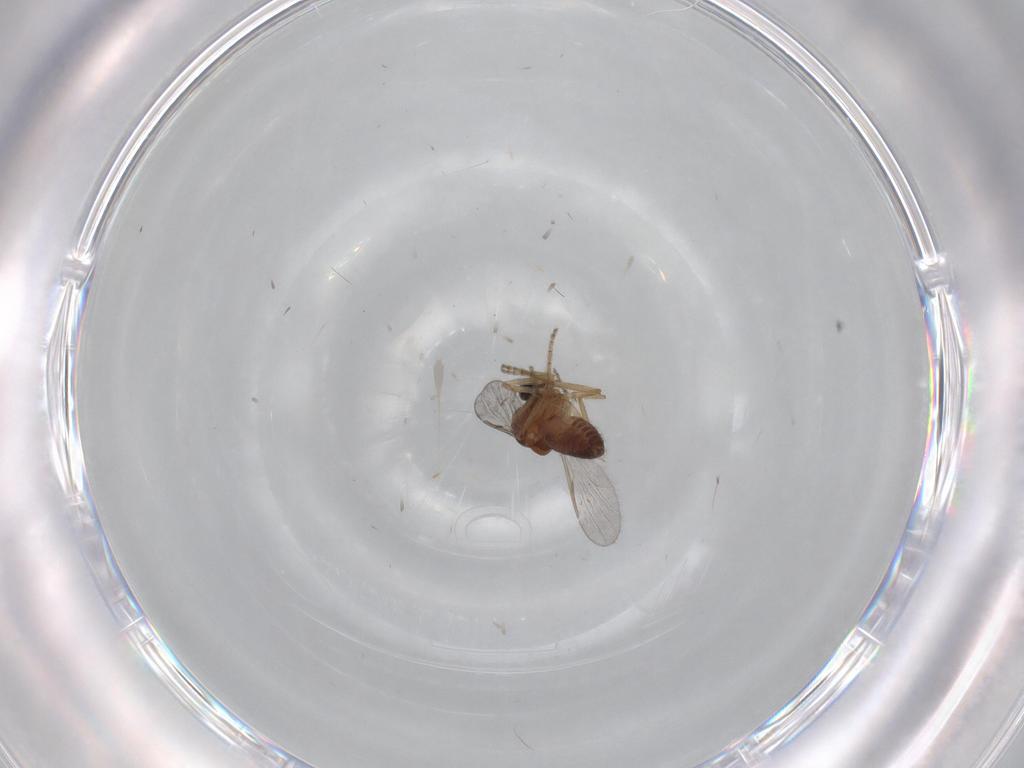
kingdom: Animalia
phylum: Arthropoda
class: Insecta
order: Diptera
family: Ceratopogonidae
